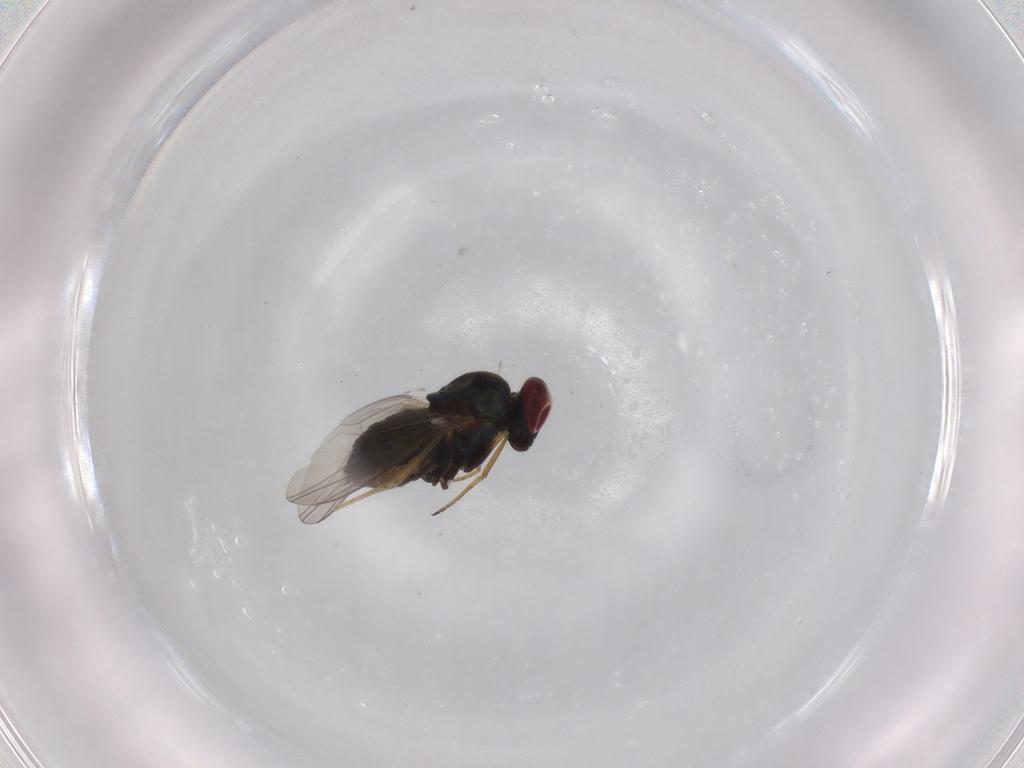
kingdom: Animalia
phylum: Arthropoda
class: Insecta
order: Diptera
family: Dolichopodidae
